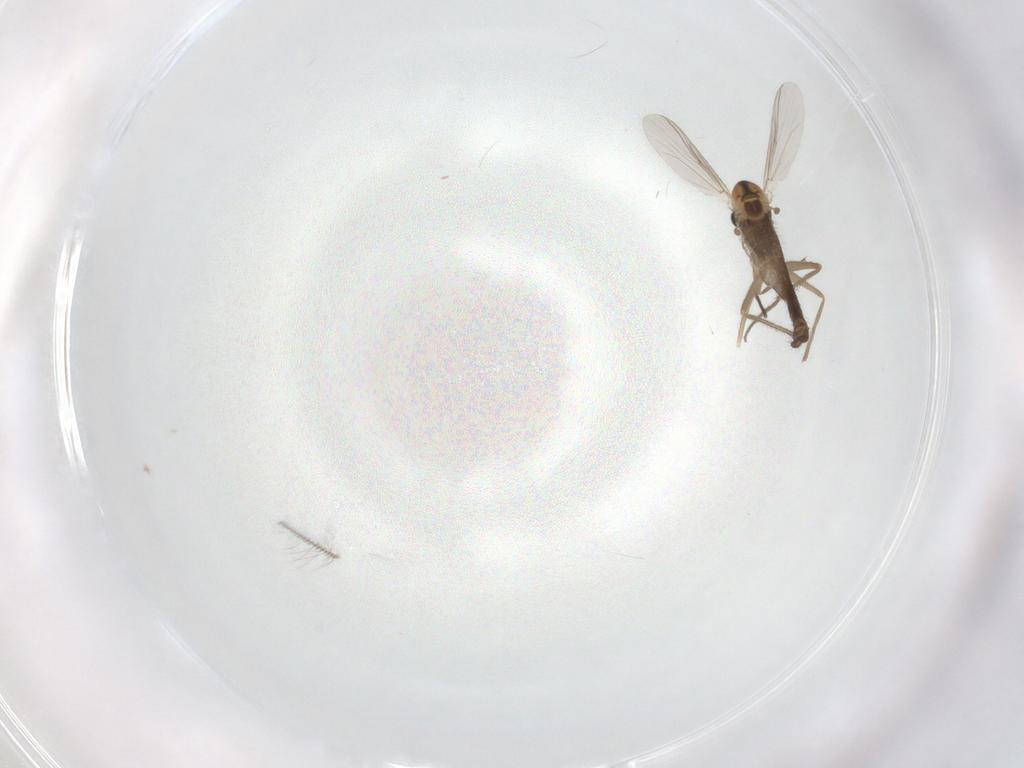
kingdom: Animalia
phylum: Arthropoda
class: Insecta
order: Diptera
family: Chironomidae
